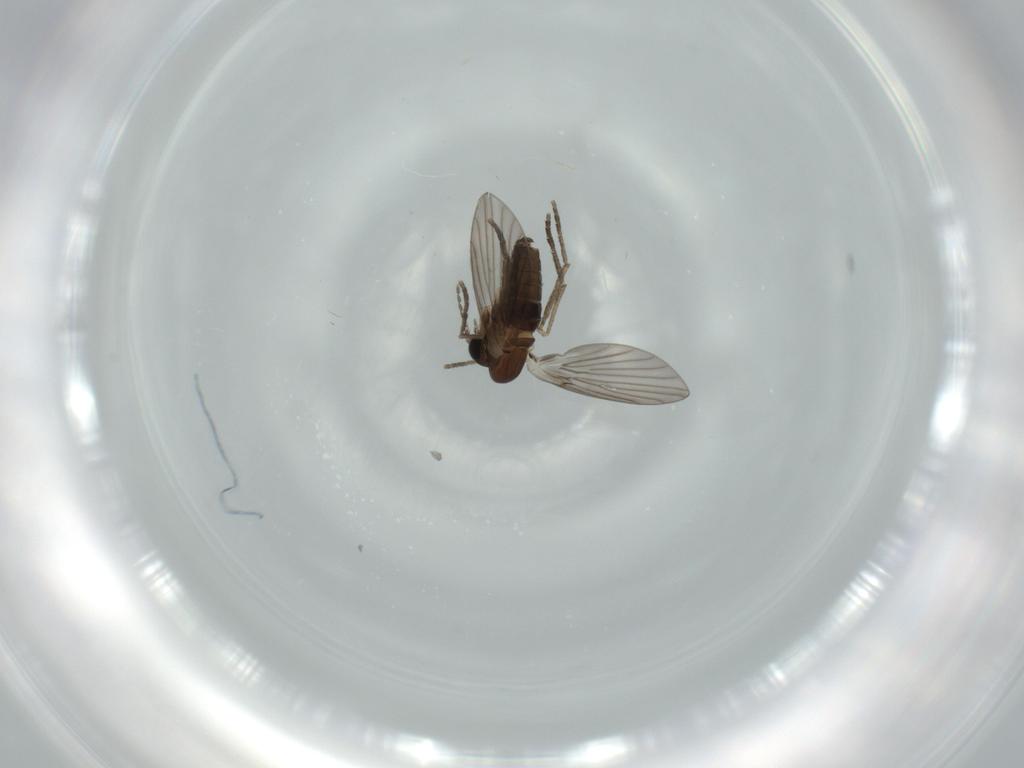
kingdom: Animalia
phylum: Arthropoda
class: Insecta
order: Diptera
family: Psychodidae
